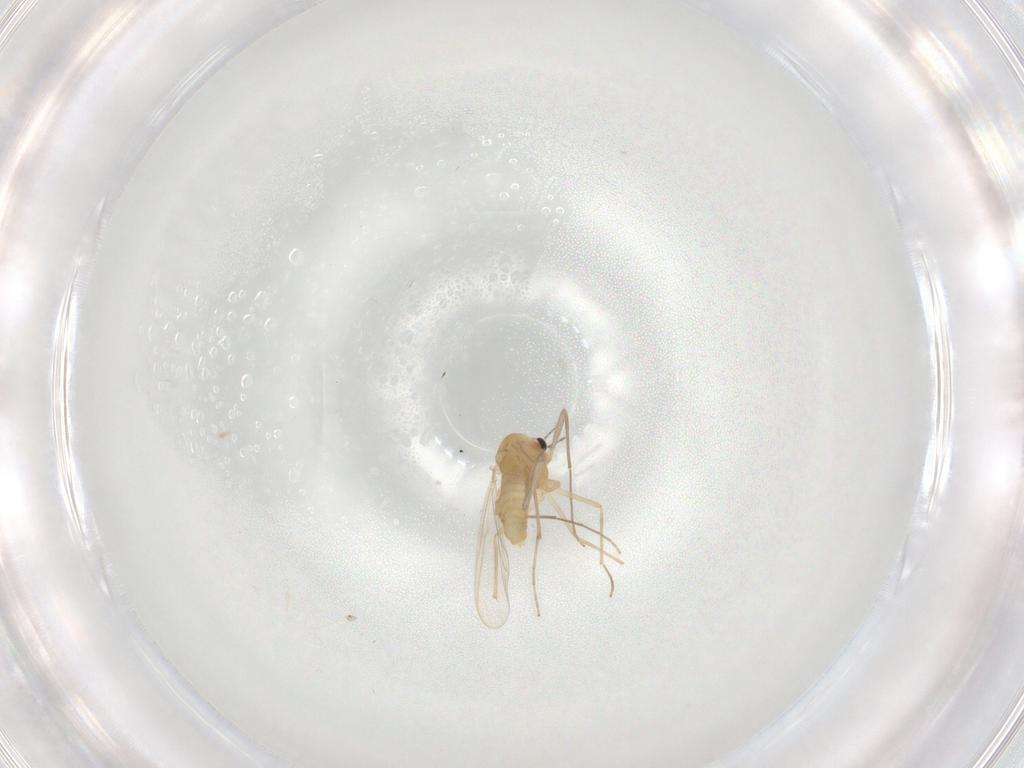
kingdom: Animalia
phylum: Arthropoda
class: Insecta
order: Diptera
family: Chironomidae
